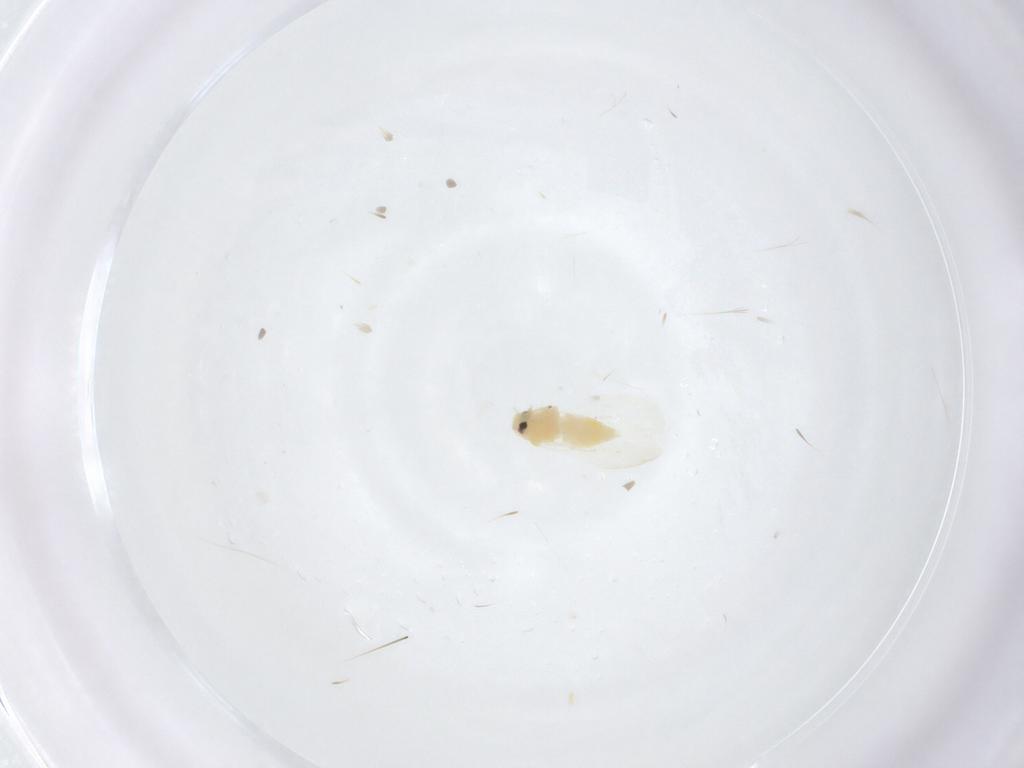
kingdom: Animalia
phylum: Arthropoda
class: Insecta
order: Hemiptera
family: Aleyrodidae
